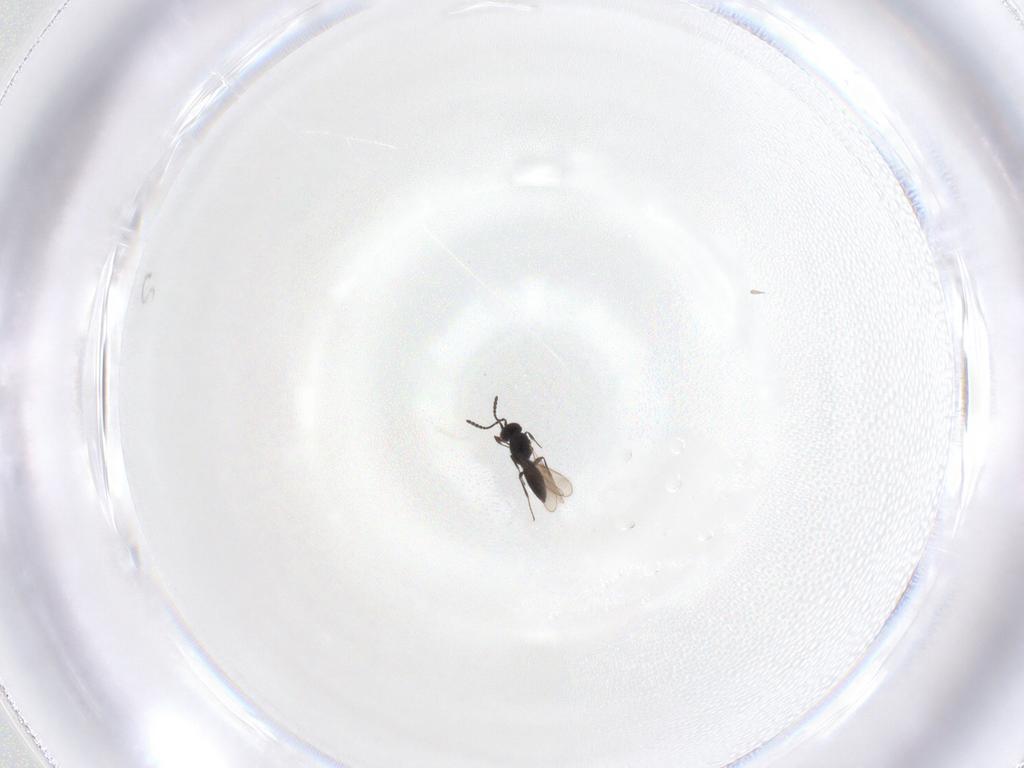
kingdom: Animalia
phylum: Arthropoda
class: Insecta
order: Hymenoptera
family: Scelionidae
